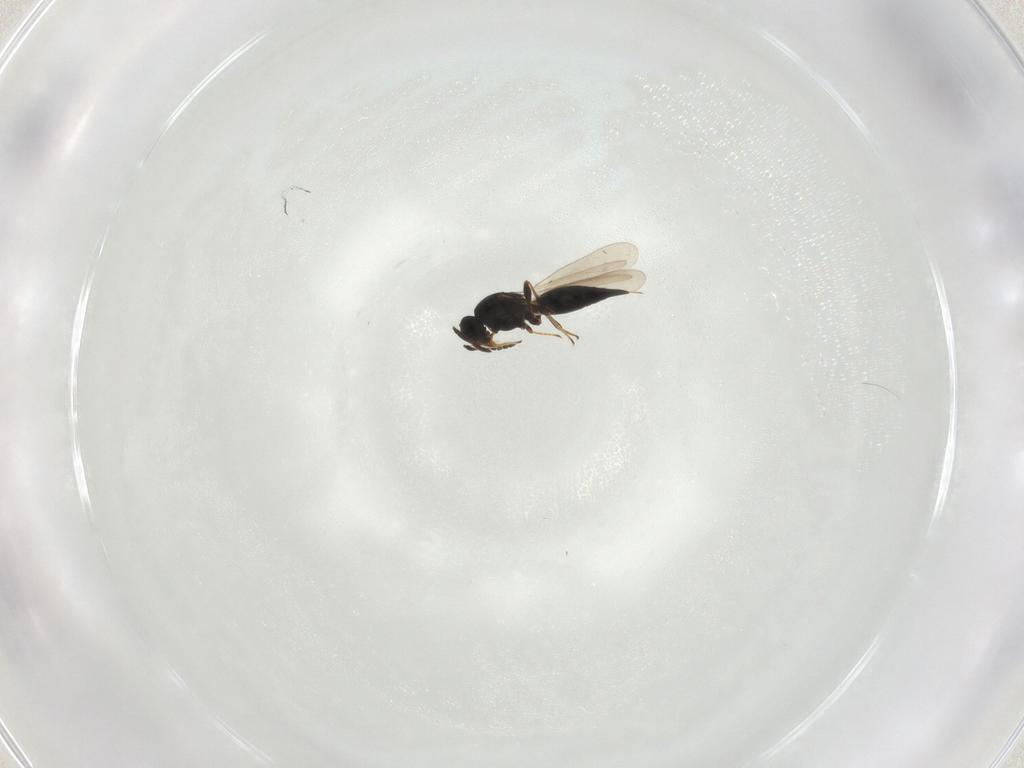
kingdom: Animalia
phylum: Arthropoda
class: Insecta
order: Hymenoptera
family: Platygastridae
